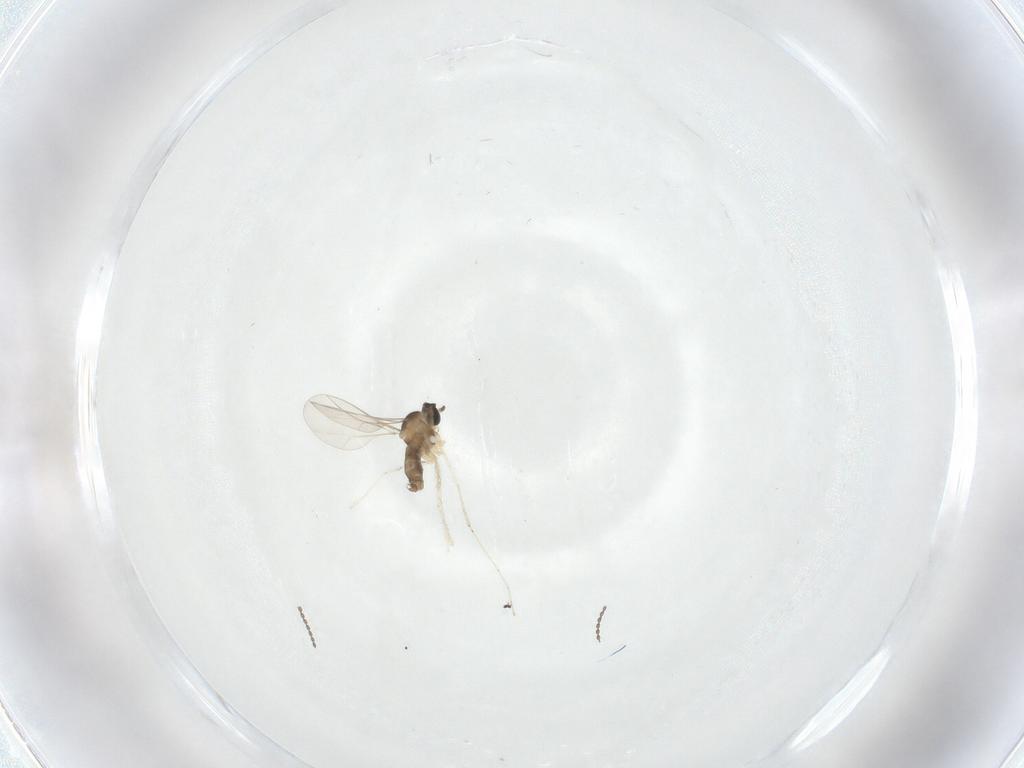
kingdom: Animalia
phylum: Arthropoda
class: Insecta
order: Diptera
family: Cecidomyiidae
